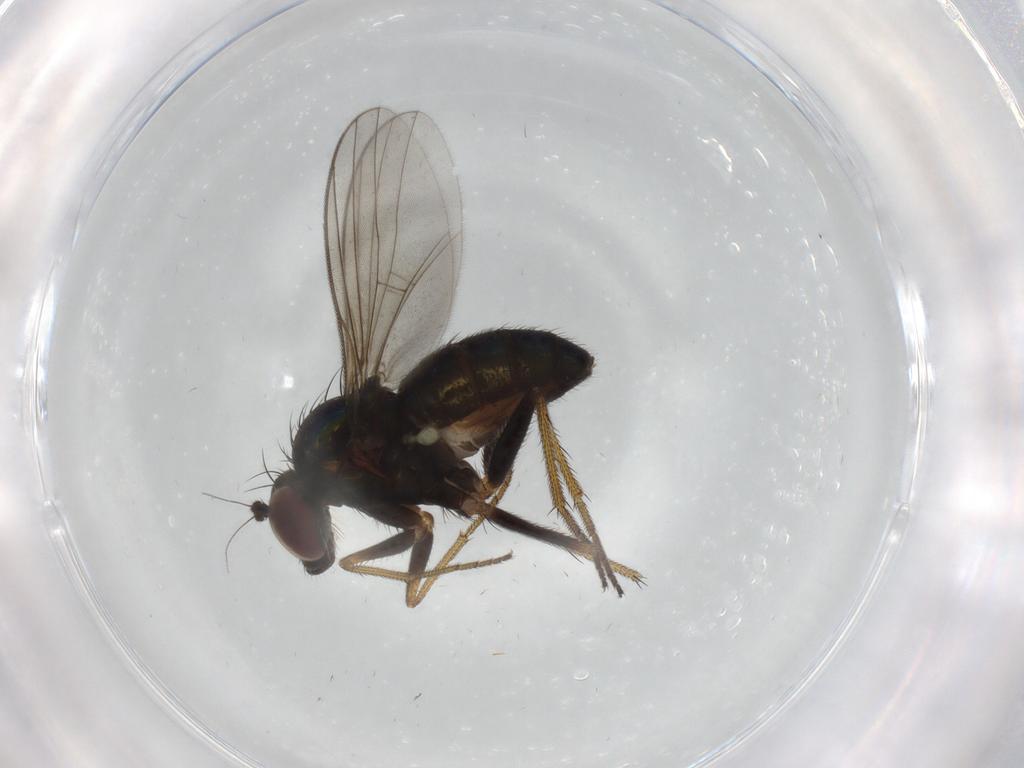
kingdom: Animalia
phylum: Arthropoda
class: Insecta
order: Diptera
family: Dolichopodidae
